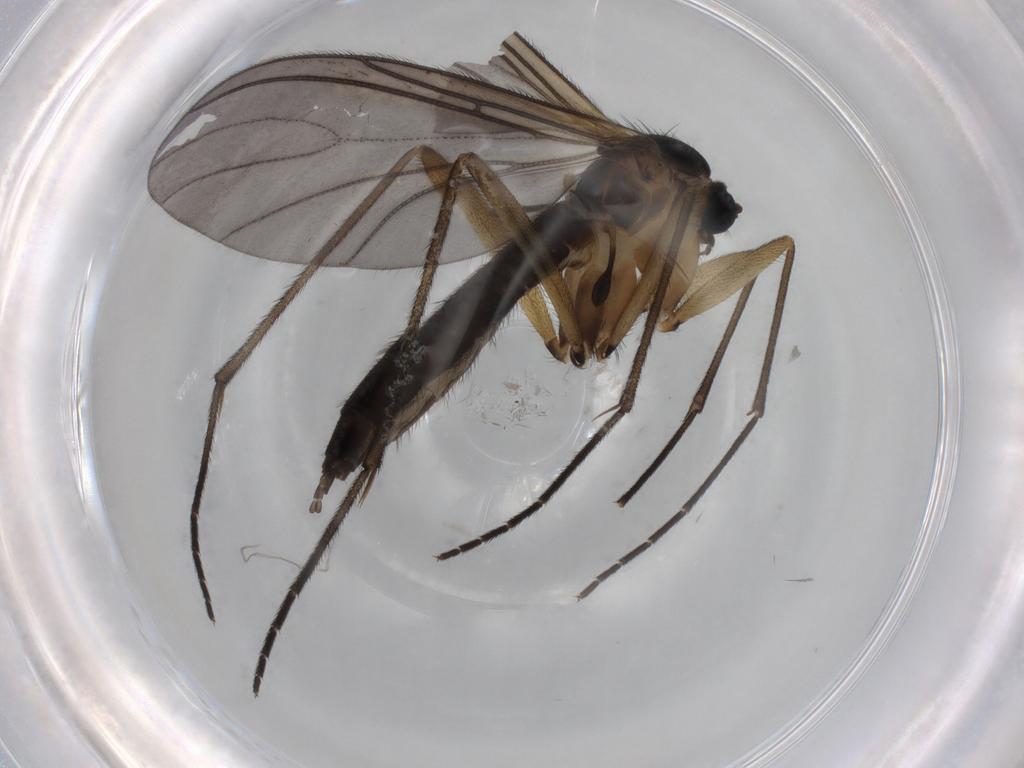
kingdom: Animalia
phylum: Arthropoda
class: Insecta
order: Diptera
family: Sciaridae
